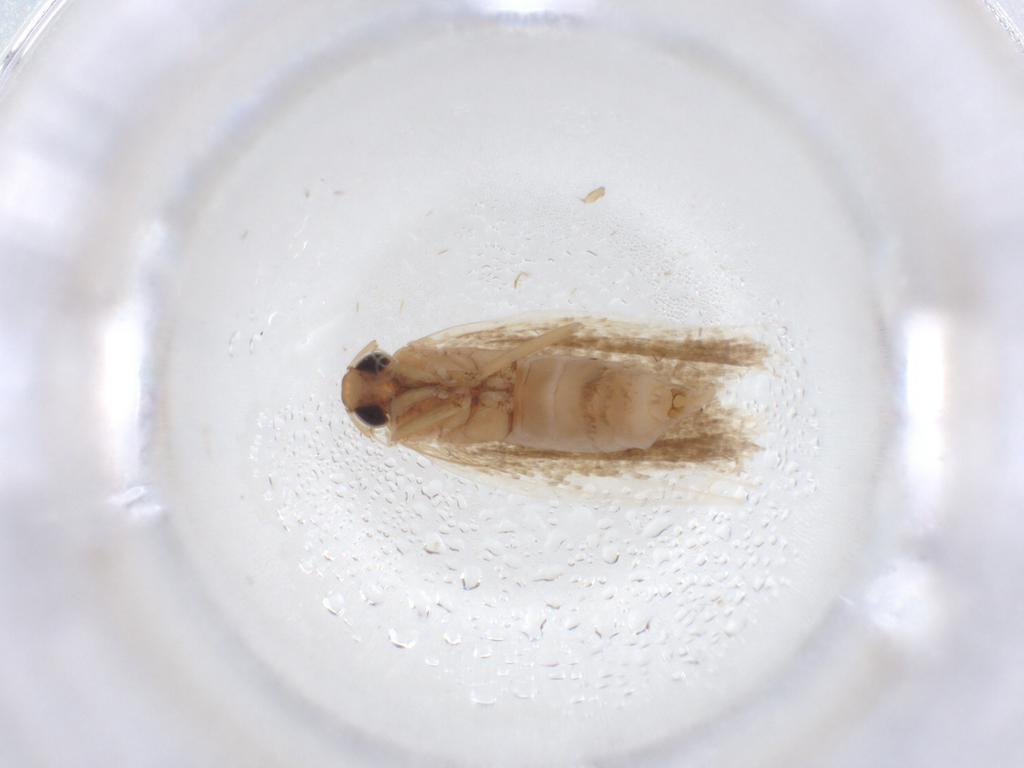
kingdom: Animalia
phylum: Arthropoda
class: Insecta
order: Lepidoptera
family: Lecithoceridae
